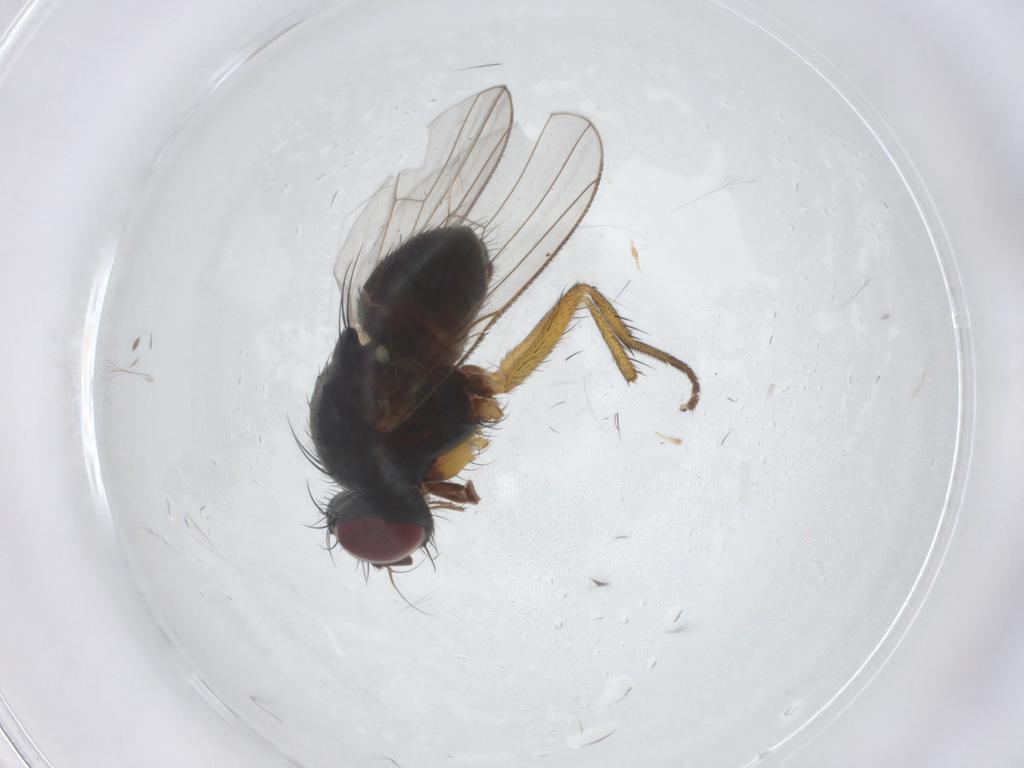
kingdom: Animalia
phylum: Arthropoda
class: Insecta
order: Diptera
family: Muscidae
